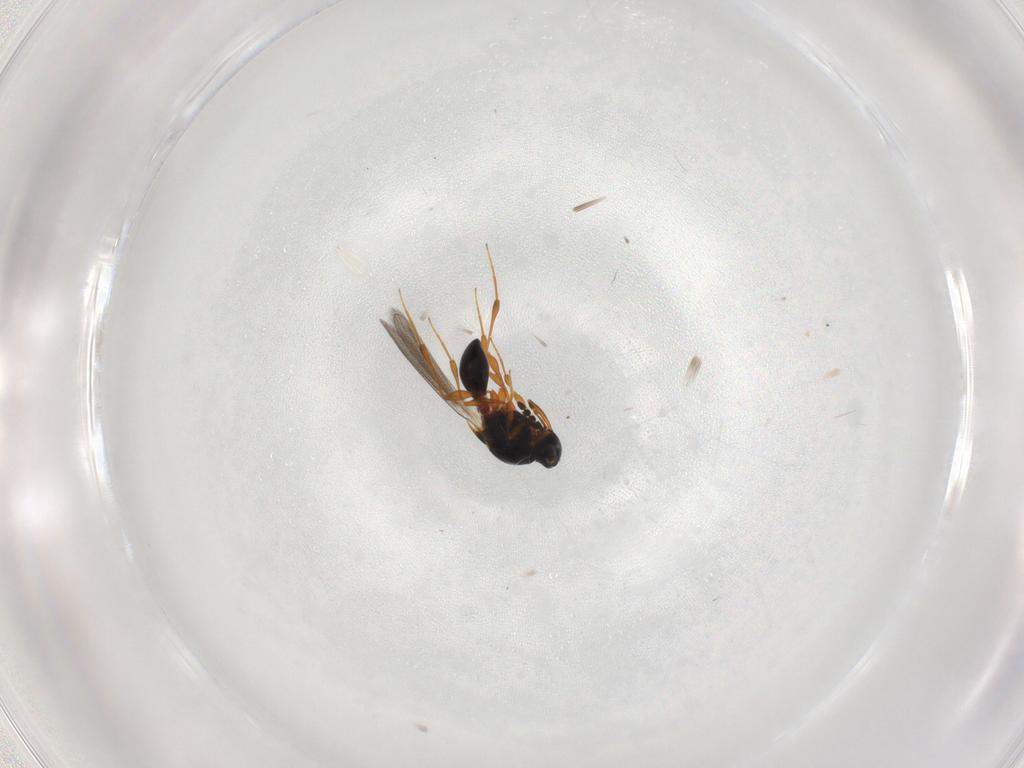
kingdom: Animalia
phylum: Arthropoda
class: Insecta
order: Hymenoptera
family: Platygastridae
